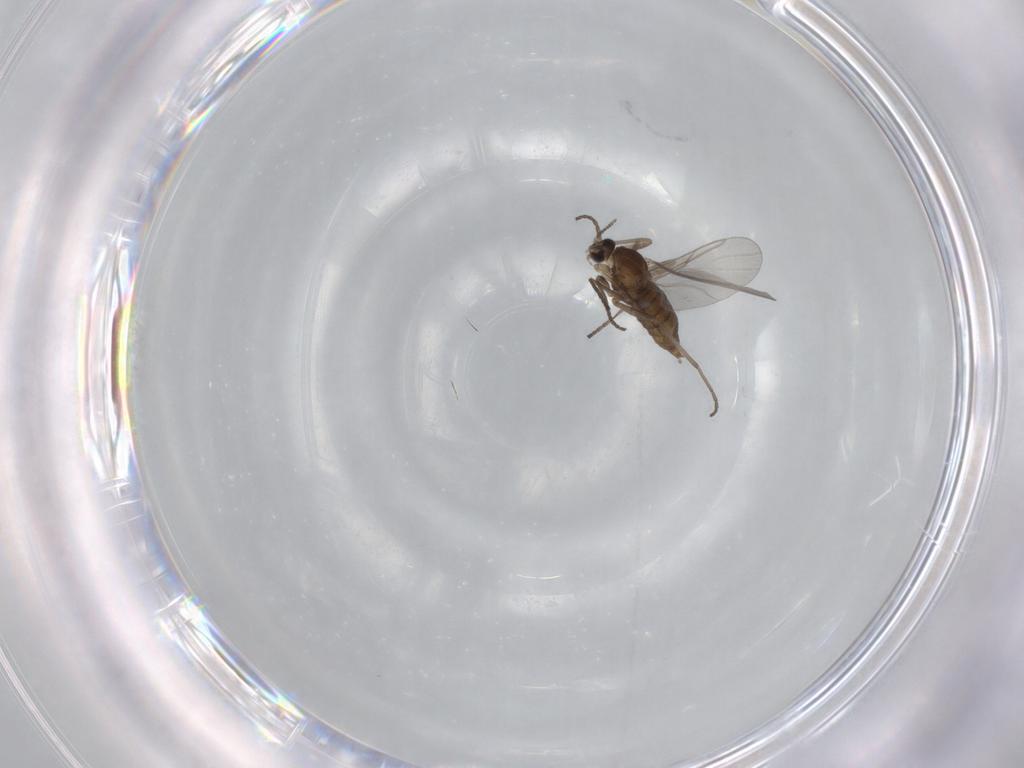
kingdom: Animalia
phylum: Arthropoda
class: Insecta
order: Diptera
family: Cecidomyiidae
